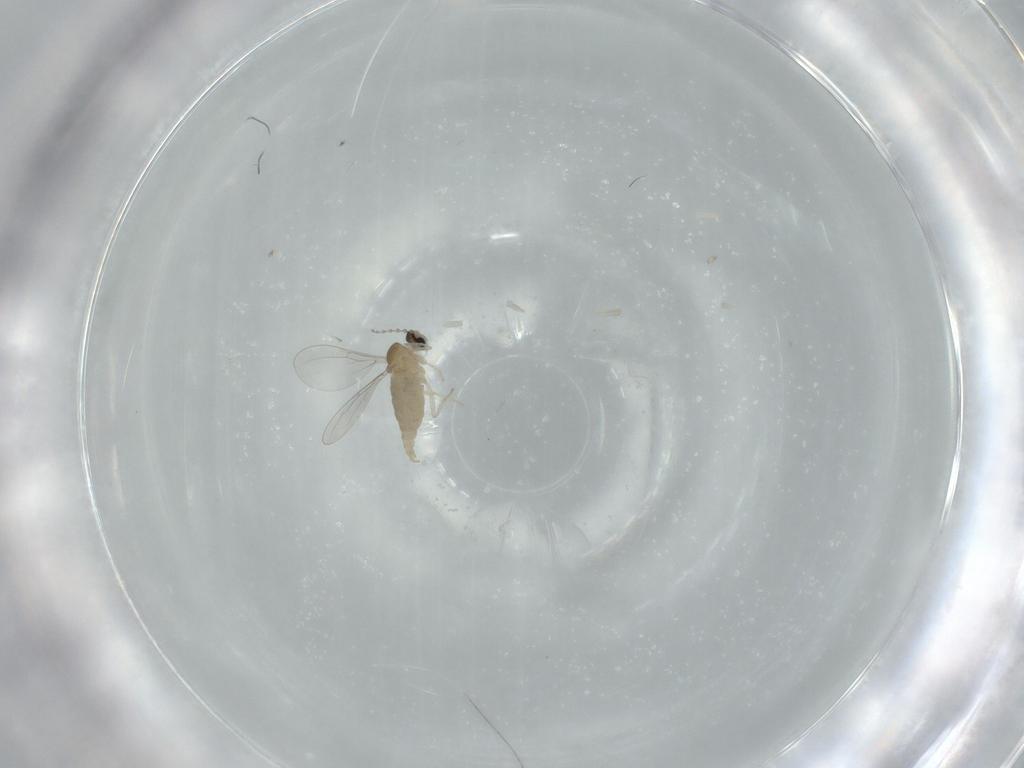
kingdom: Animalia
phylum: Arthropoda
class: Insecta
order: Diptera
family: Cecidomyiidae
